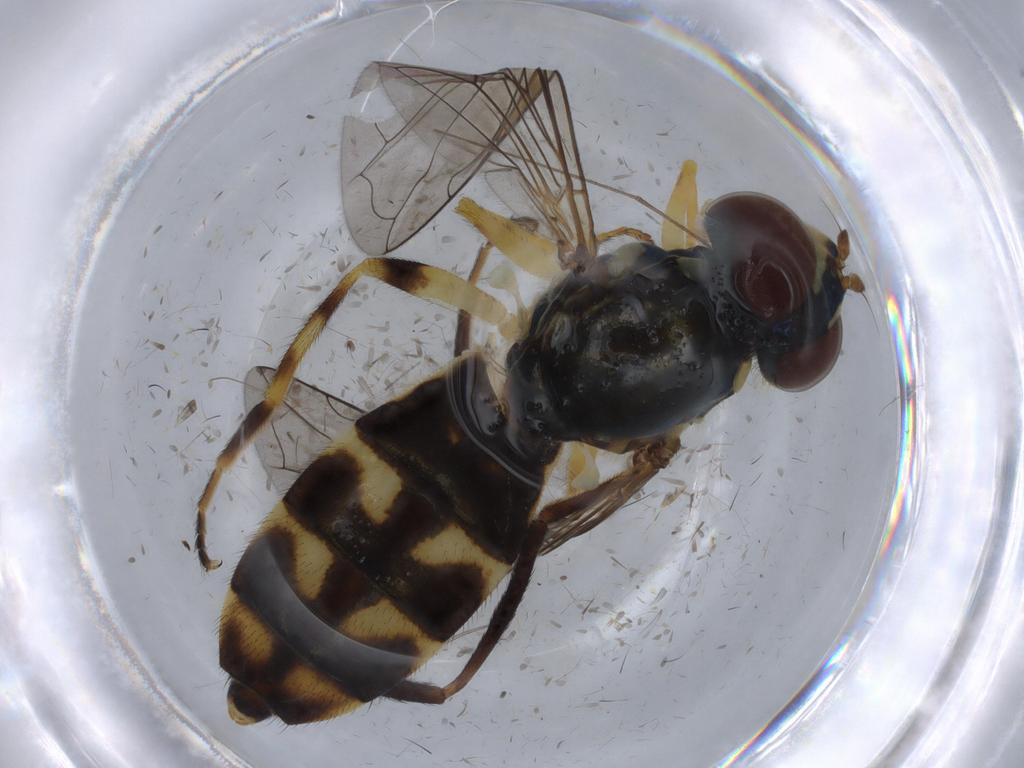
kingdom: Animalia
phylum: Arthropoda
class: Insecta
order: Diptera
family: Syrphidae
